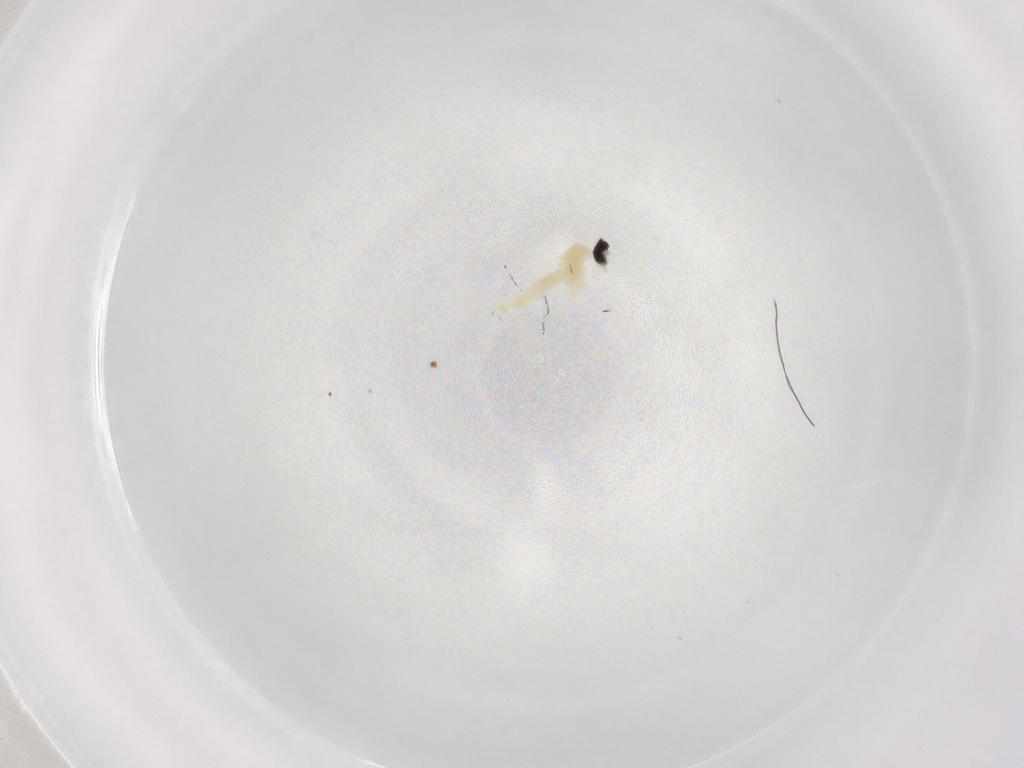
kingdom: Animalia
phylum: Arthropoda
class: Insecta
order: Diptera
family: Cecidomyiidae
